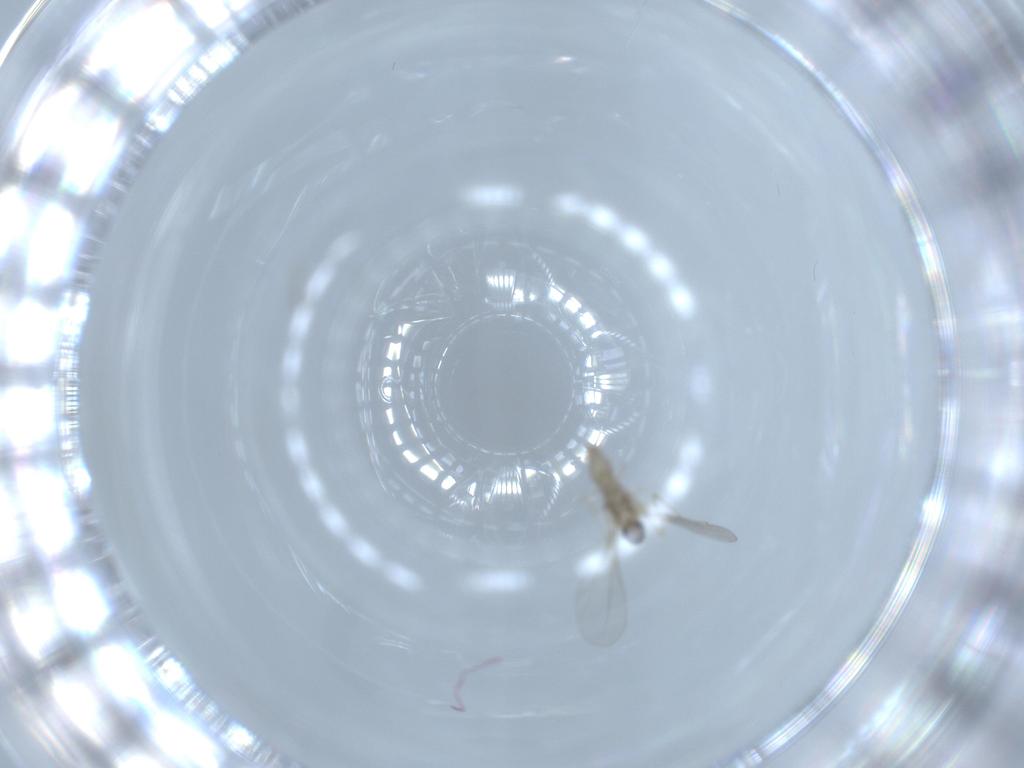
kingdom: Animalia
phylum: Arthropoda
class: Insecta
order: Diptera
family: Cecidomyiidae
